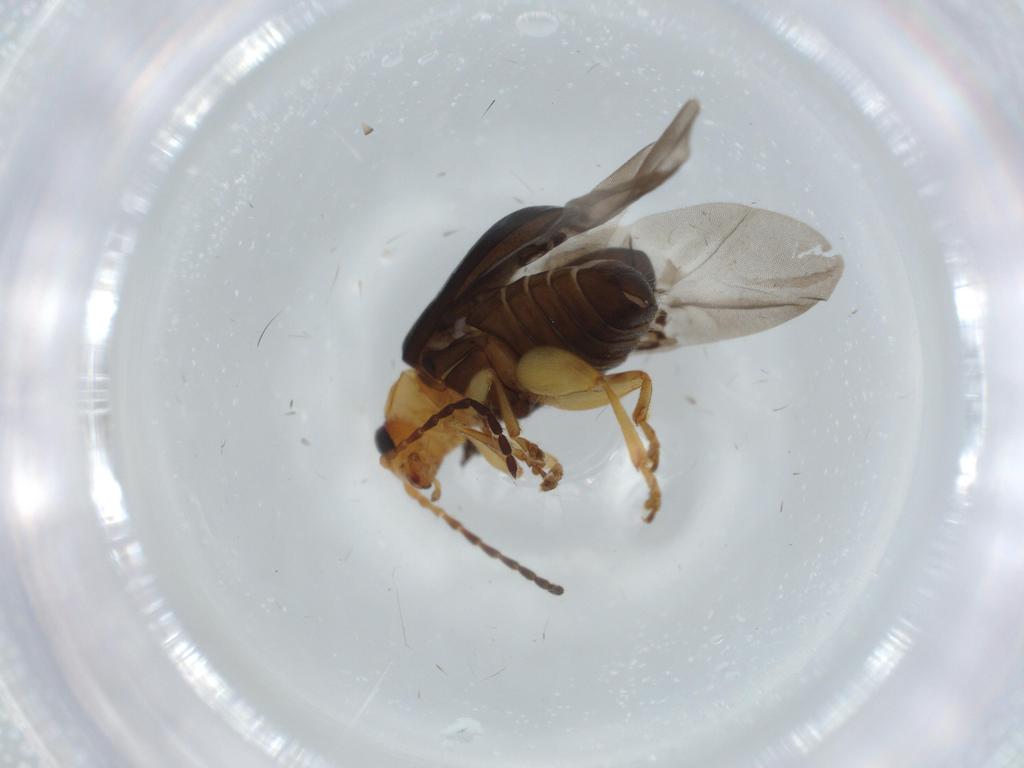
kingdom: Animalia
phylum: Arthropoda
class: Insecta
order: Coleoptera
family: Chrysomelidae
